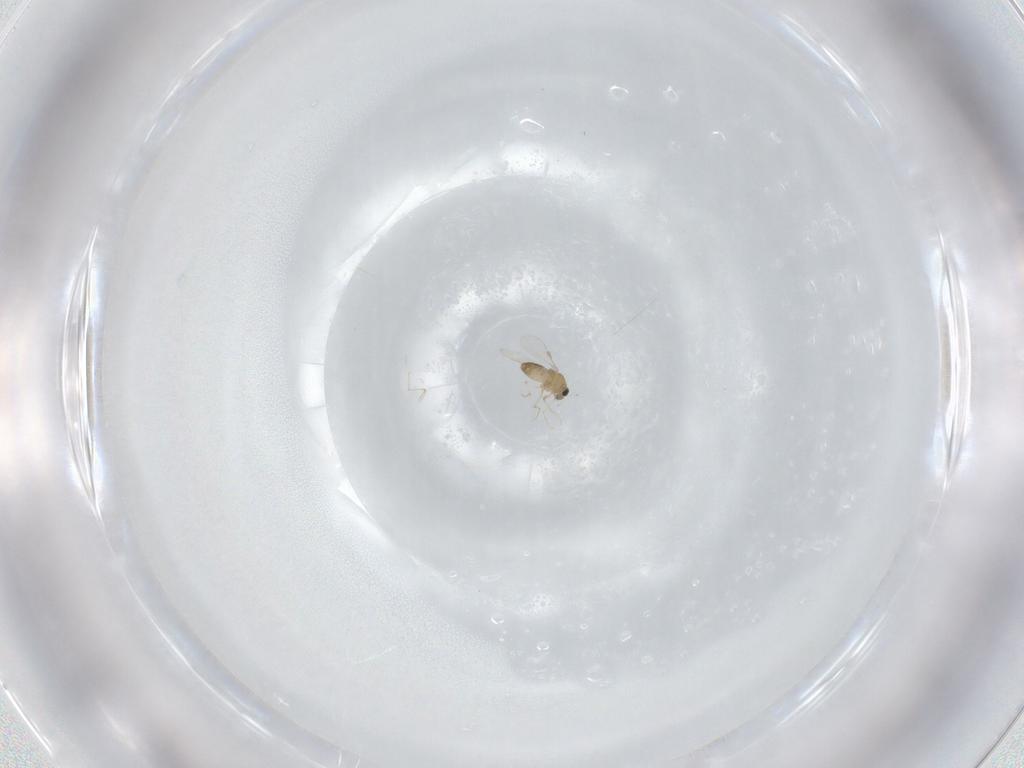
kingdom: Animalia
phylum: Arthropoda
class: Insecta
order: Diptera
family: Chironomidae
